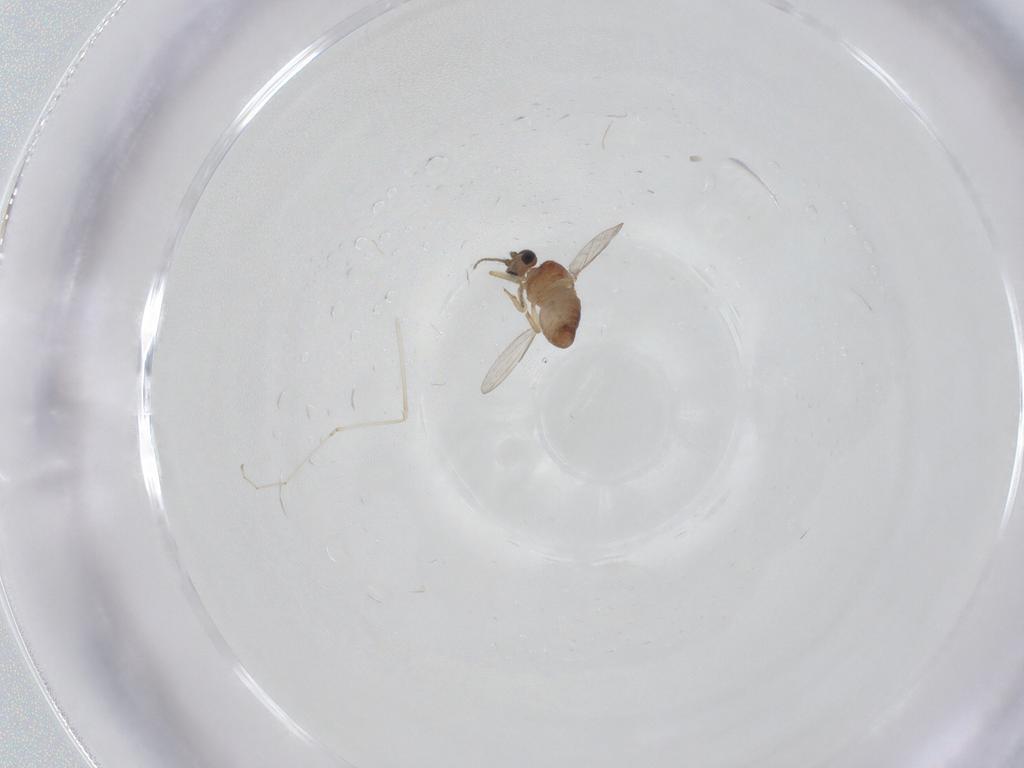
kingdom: Animalia
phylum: Arthropoda
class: Insecta
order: Diptera
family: Ceratopogonidae
